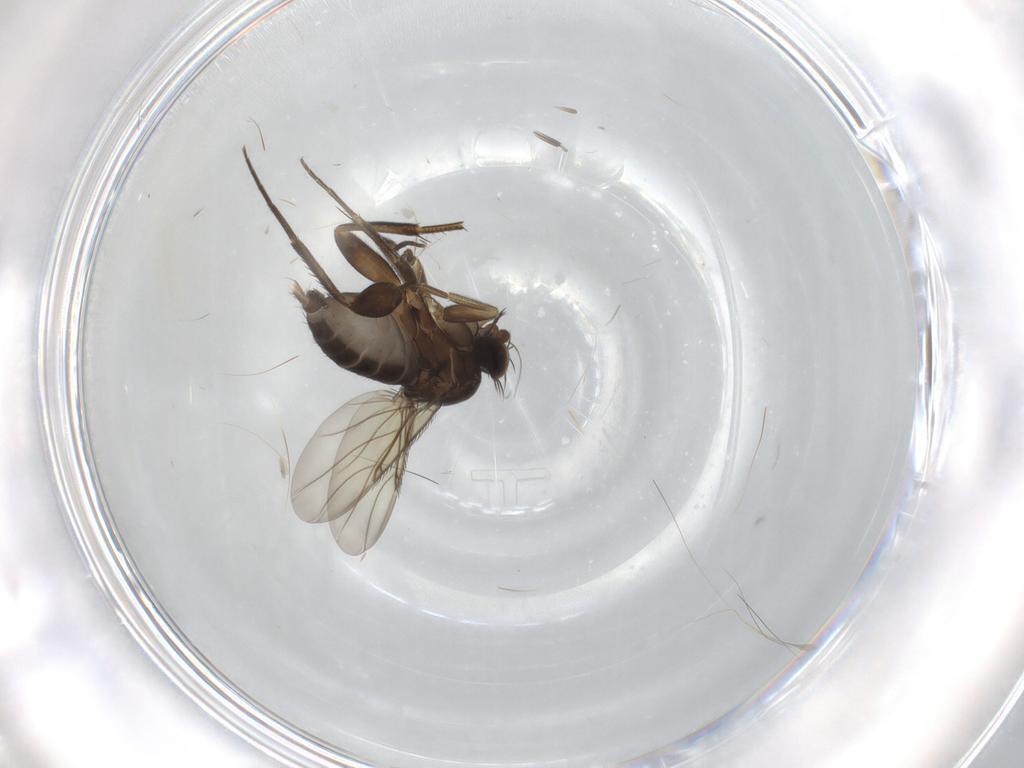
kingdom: Animalia
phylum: Arthropoda
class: Insecta
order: Diptera
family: Phoridae
